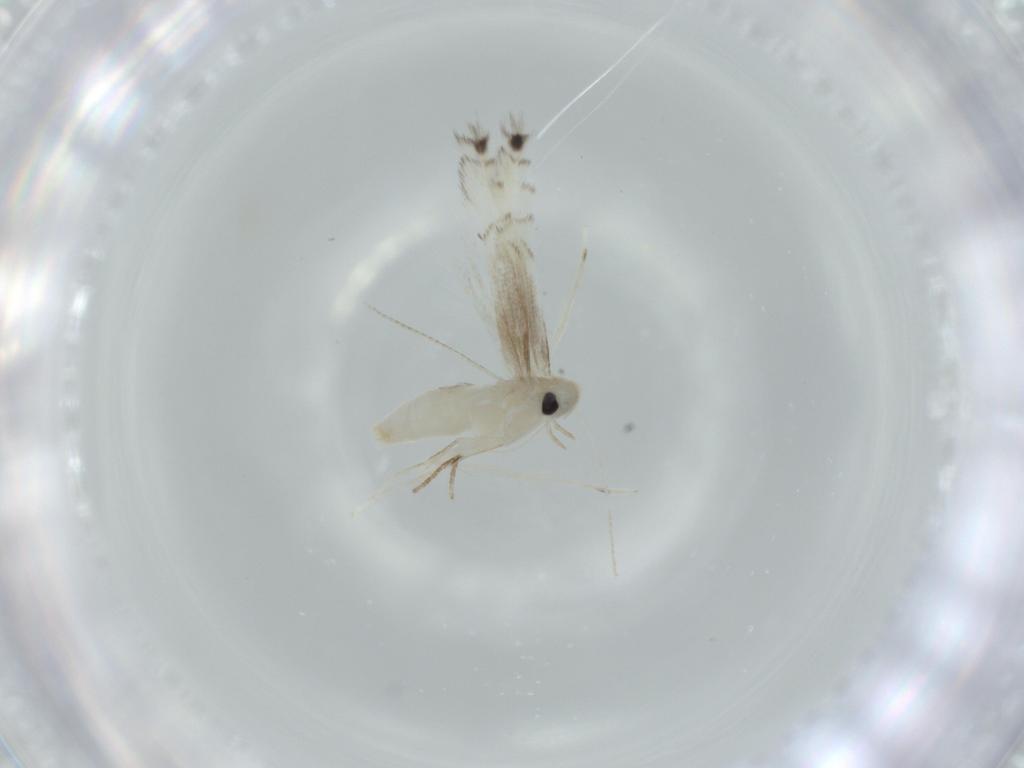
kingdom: Animalia
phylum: Arthropoda
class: Insecta
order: Lepidoptera
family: Gracillariidae
